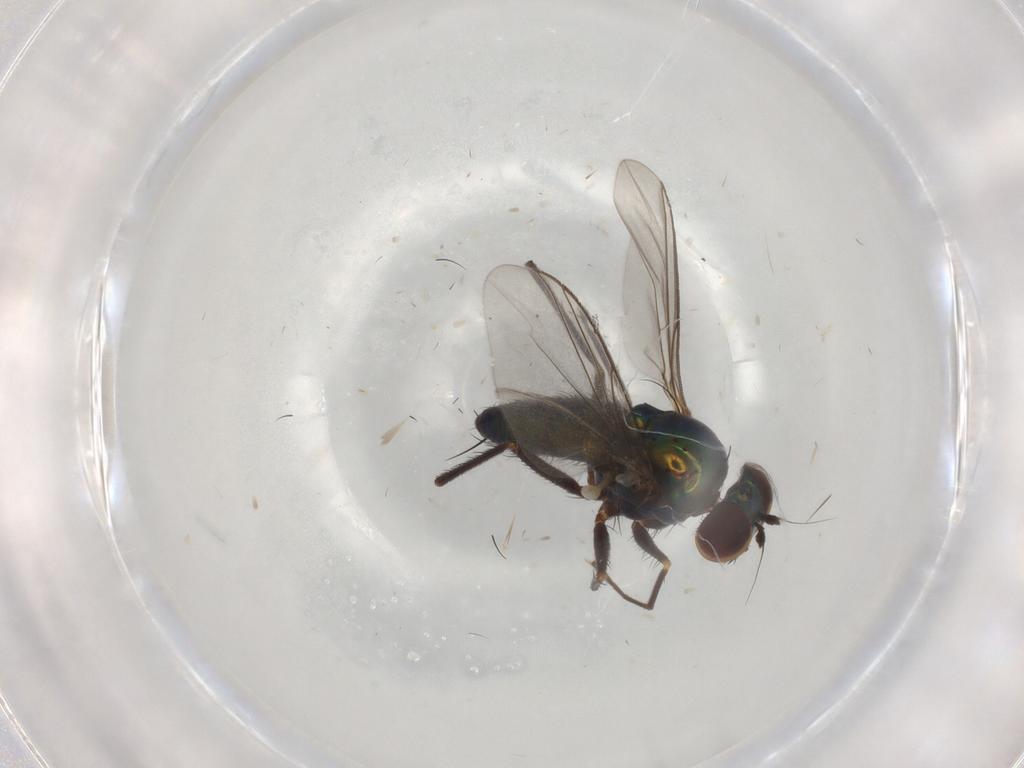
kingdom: Animalia
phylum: Arthropoda
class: Insecta
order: Diptera
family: Dolichopodidae
